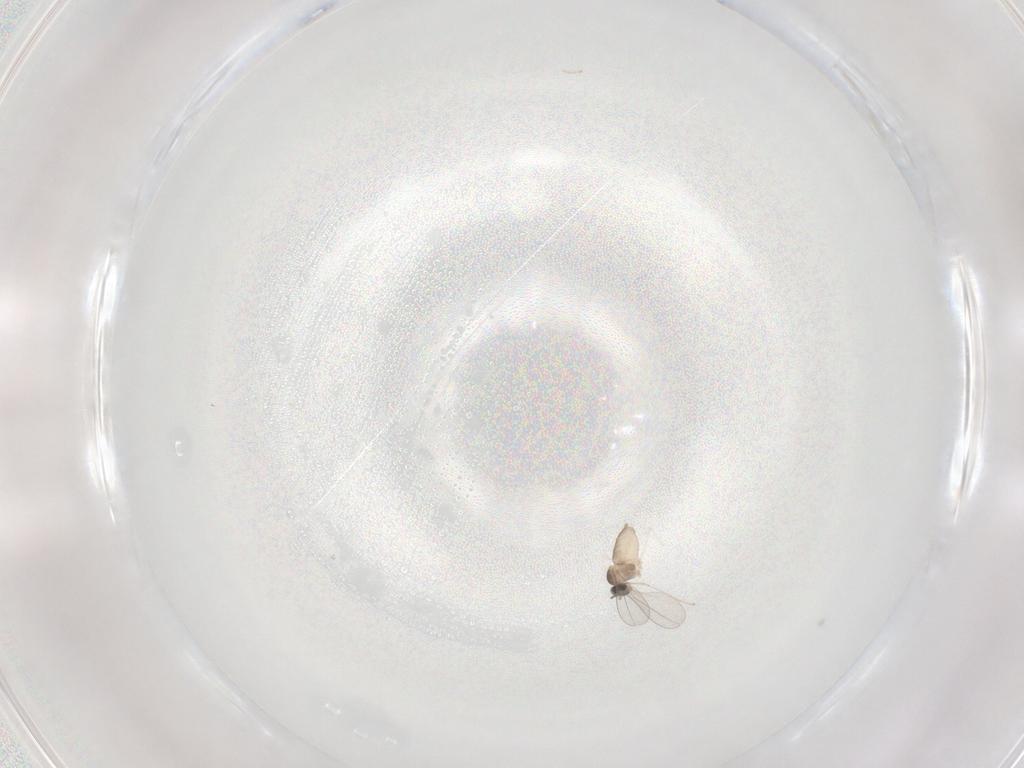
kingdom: Animalia
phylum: Arthropoda
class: Insecta
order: Diptera
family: Cecidomyiidae
